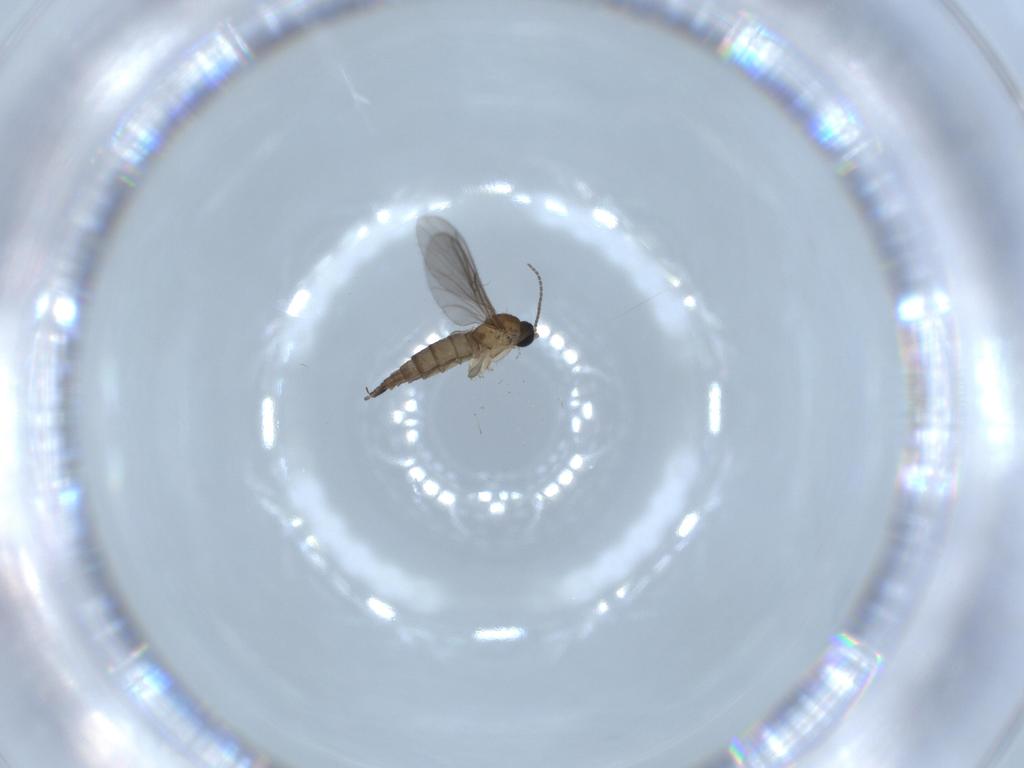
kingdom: Animalia
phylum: Arthropoda
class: Insecta
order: Diptera
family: Sciaridae
